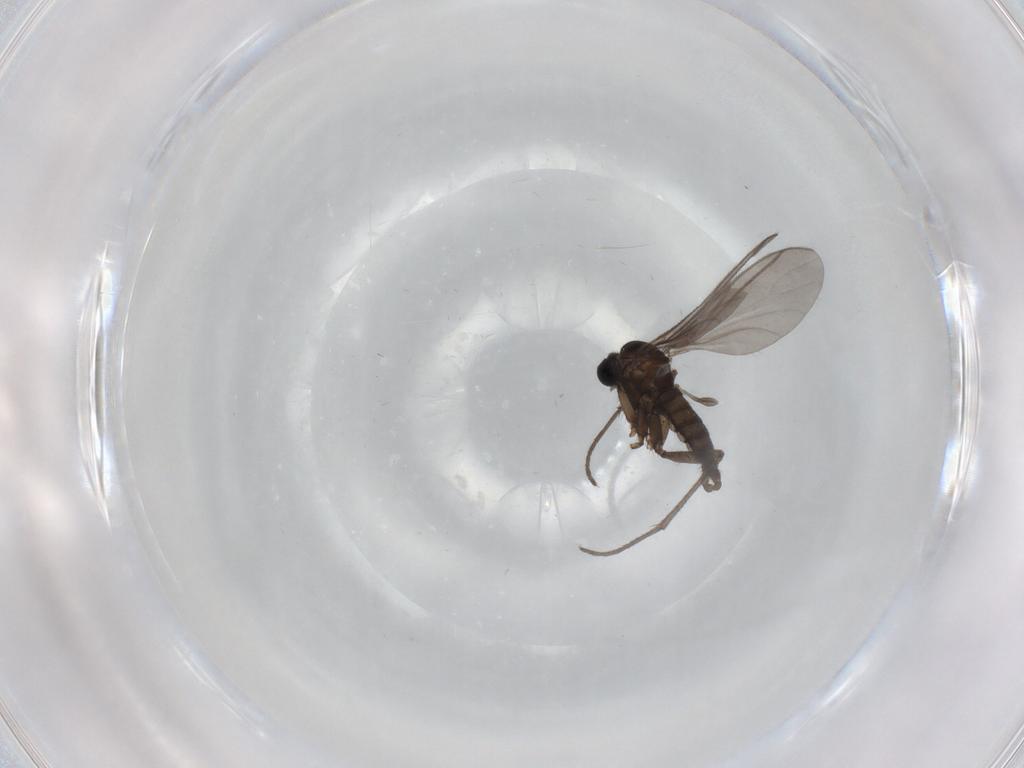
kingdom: Animalia
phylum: Arthropoda
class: Insecta
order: Diptera
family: Sciaridae
